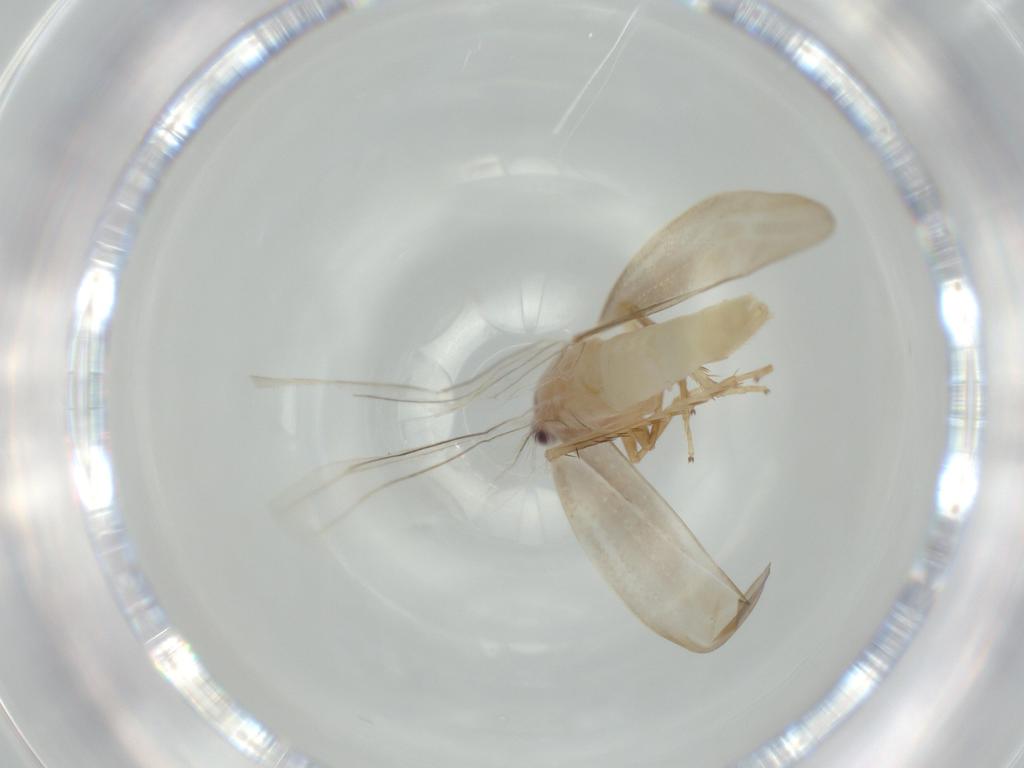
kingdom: Animalia
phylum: Arthropoda
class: Insecta
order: Hemiptera
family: Cicadellidae
